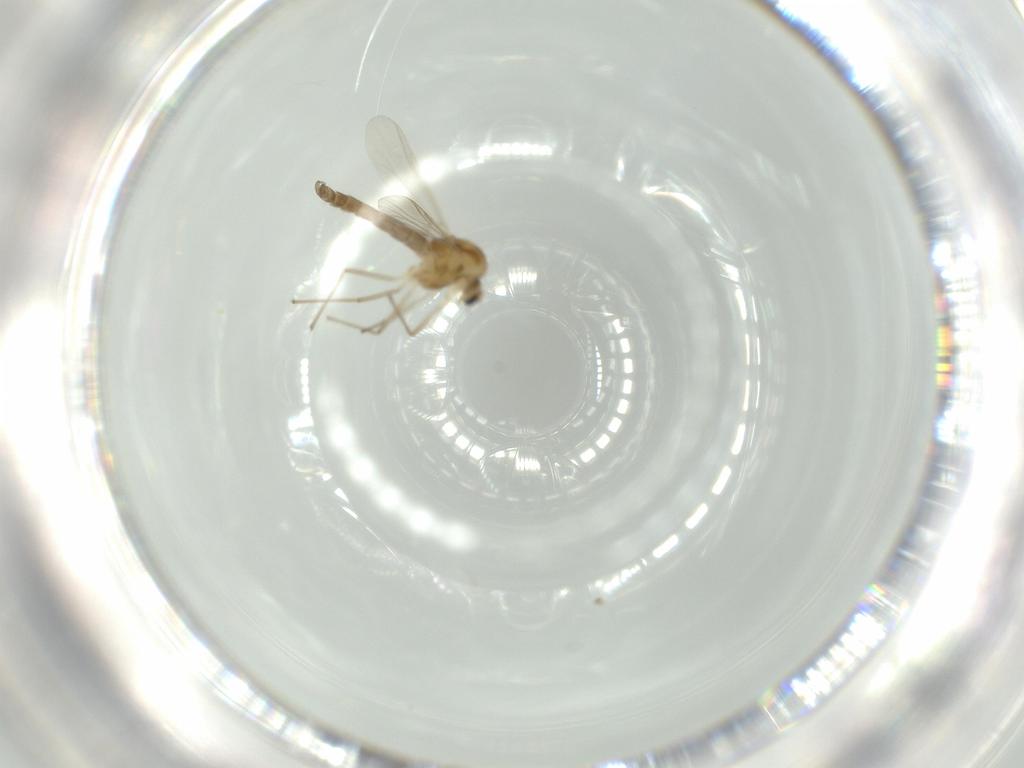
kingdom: Animalia
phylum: Arthropoda
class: Insecta
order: Diptera
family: Chironomidae
